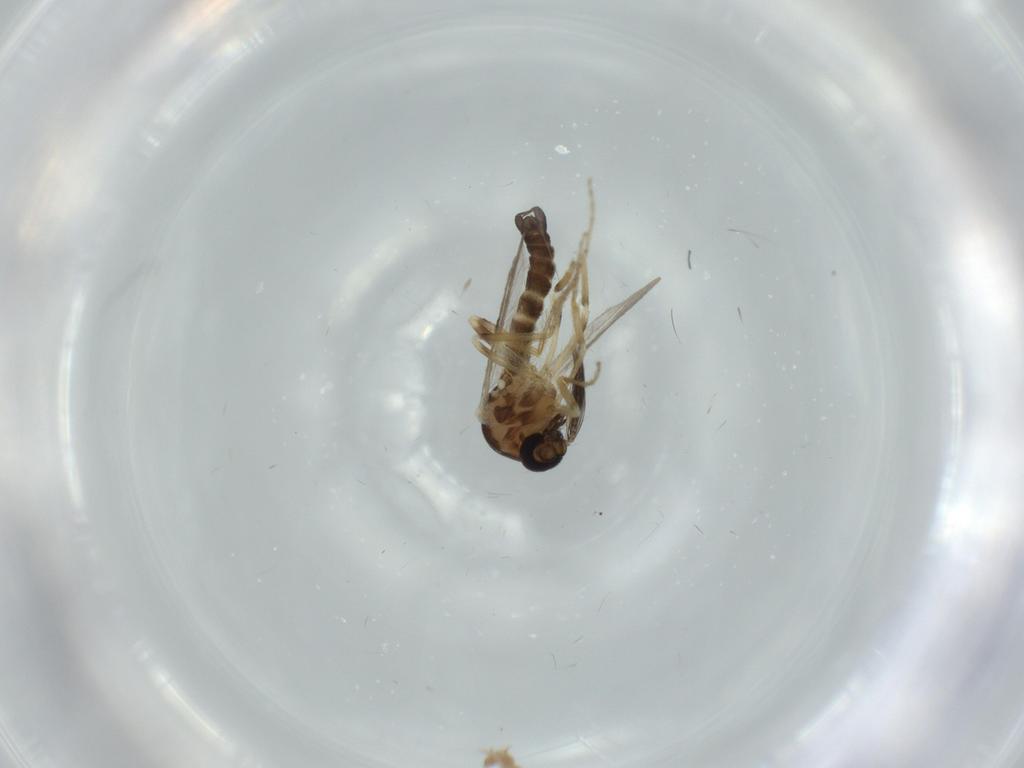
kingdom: Animalia
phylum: Arthropoda
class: Insecta
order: Diptera
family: Ceratopogonidae
